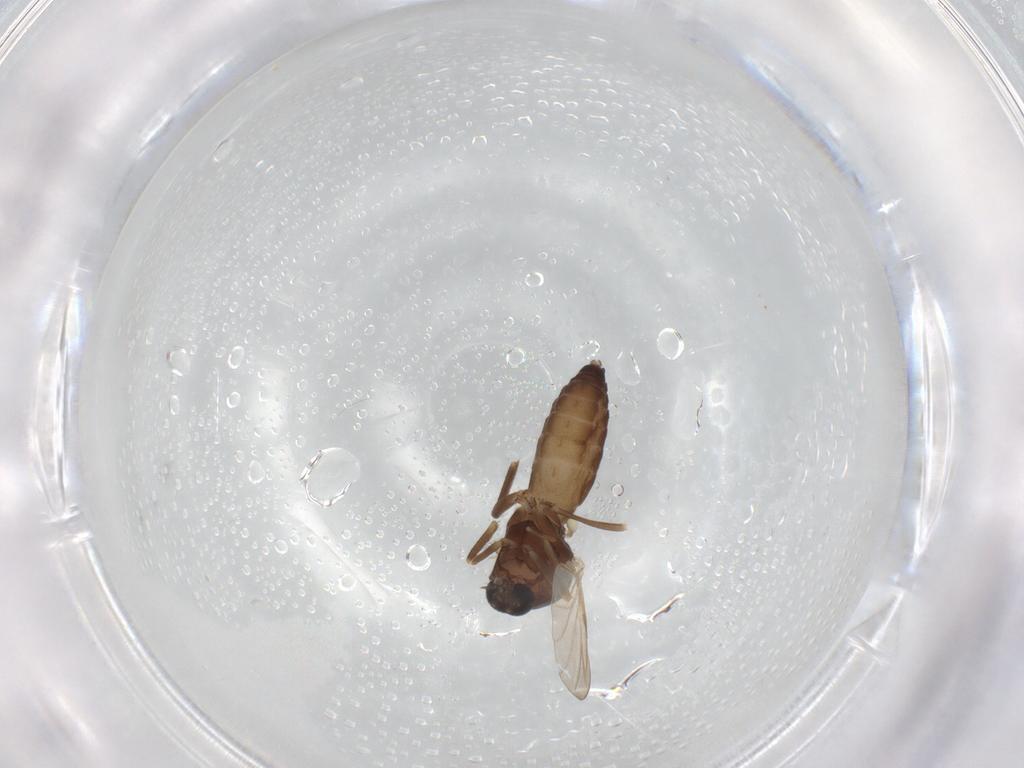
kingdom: Animalia
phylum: Arthropoda
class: Insecta
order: Diptera
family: Ceratopogonidae
